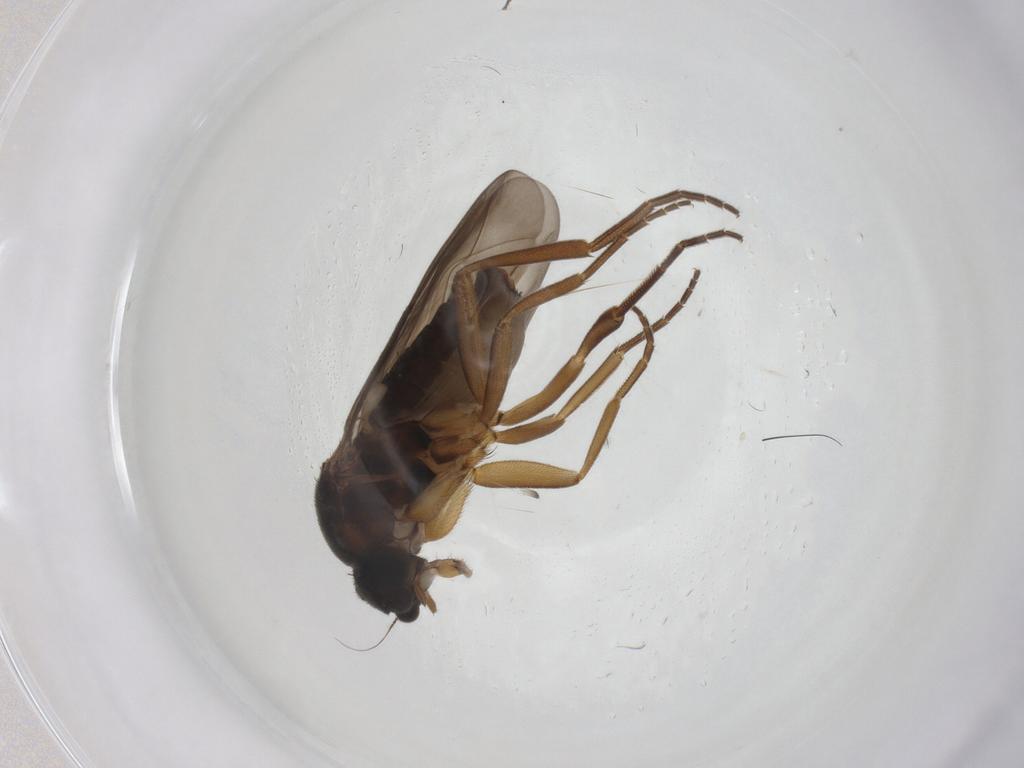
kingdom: Animalia
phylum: Arthropoda
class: Insecta
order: Diptera
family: Phoridae
